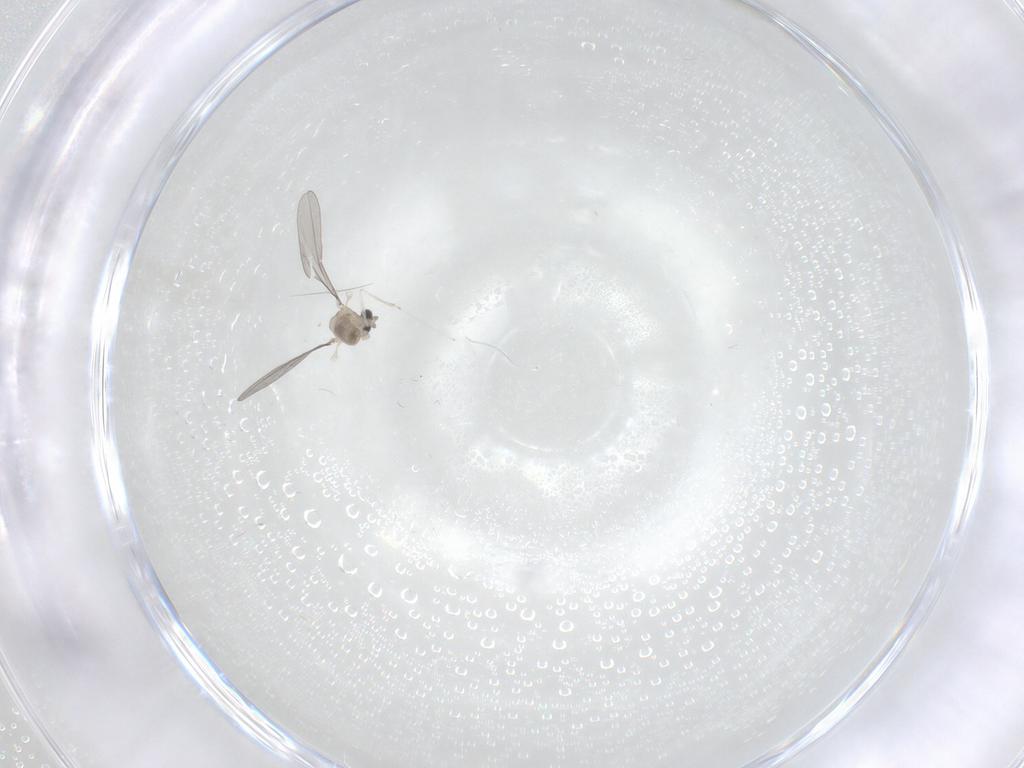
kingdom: Animalia
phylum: Arthropoda
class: Insecta
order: Diptera
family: Cecidomyiidae
